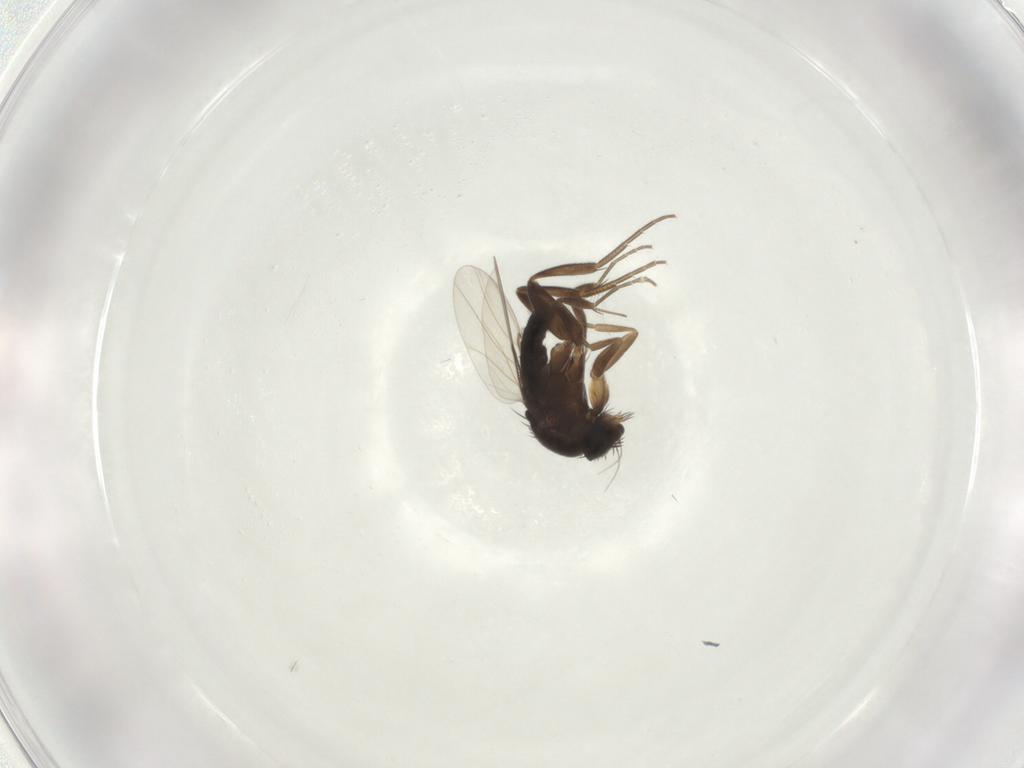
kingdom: Animalia
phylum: Arthropoda
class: Insecta
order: Diptera
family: Phoridae
